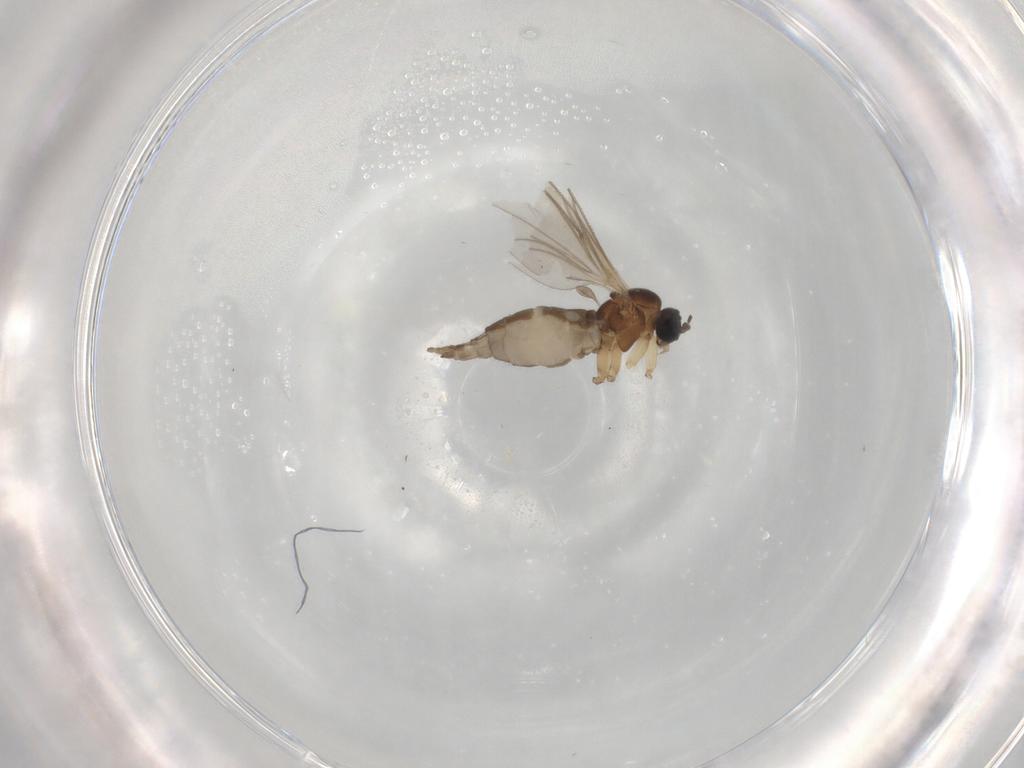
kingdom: Animalia
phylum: Arthropoda
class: Insecta
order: Diptera
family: Sciaridae
